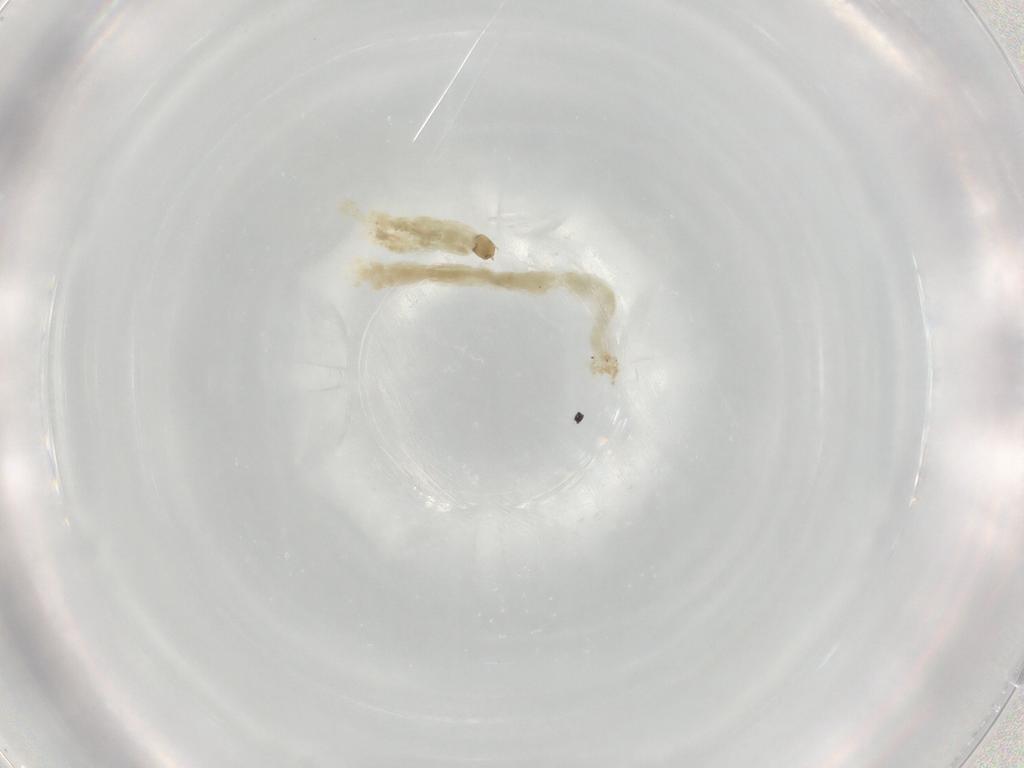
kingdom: Animalia
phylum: Arthropoda
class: Insecta
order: Diptera
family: Chironomidae
